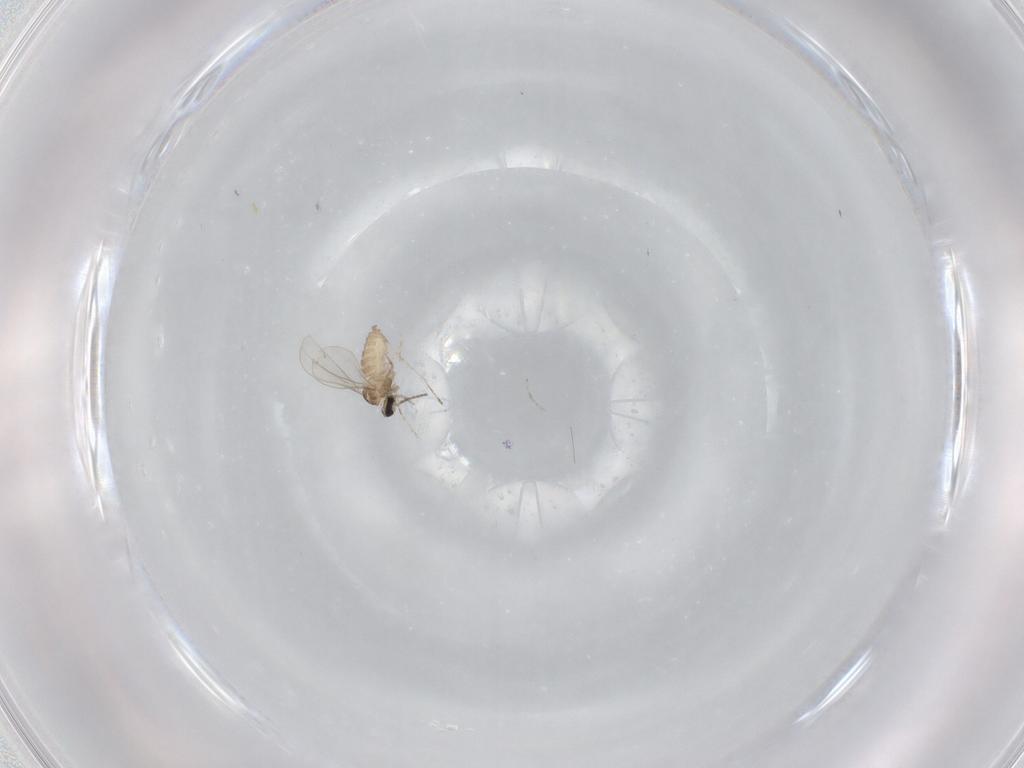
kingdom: Animalia
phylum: Arthropoda
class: Insecta
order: Diptera
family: Cecidomyiidae
